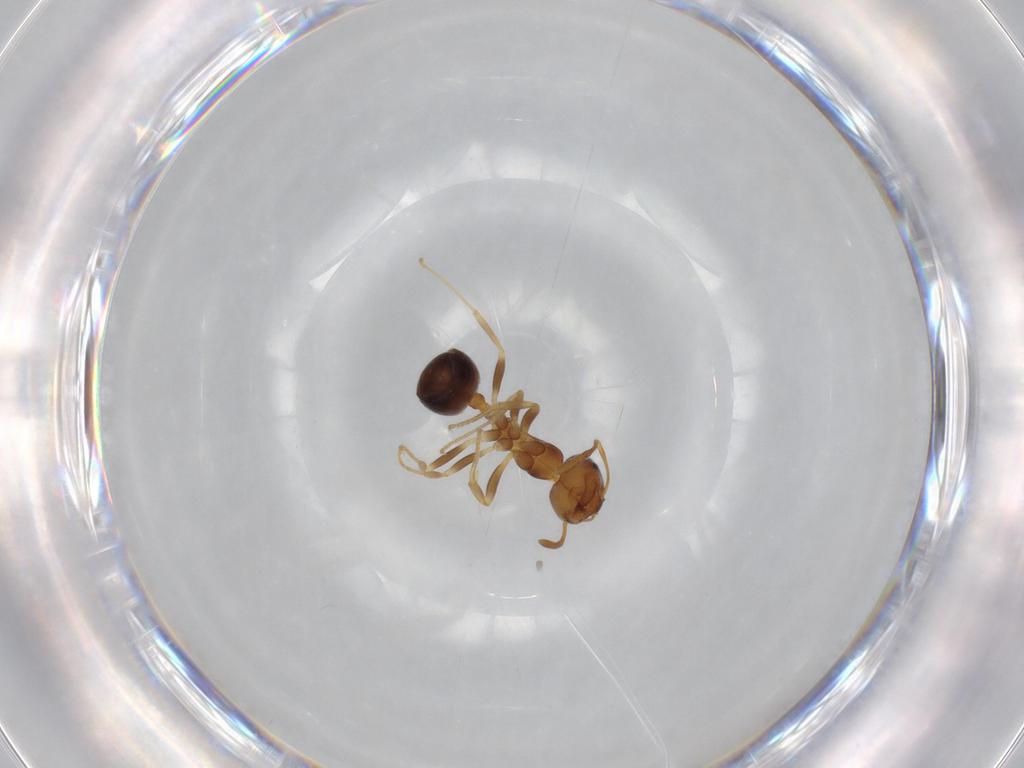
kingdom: Animalia
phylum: Arthropoda
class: Insecta
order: Hymenoptera
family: Formicidae
